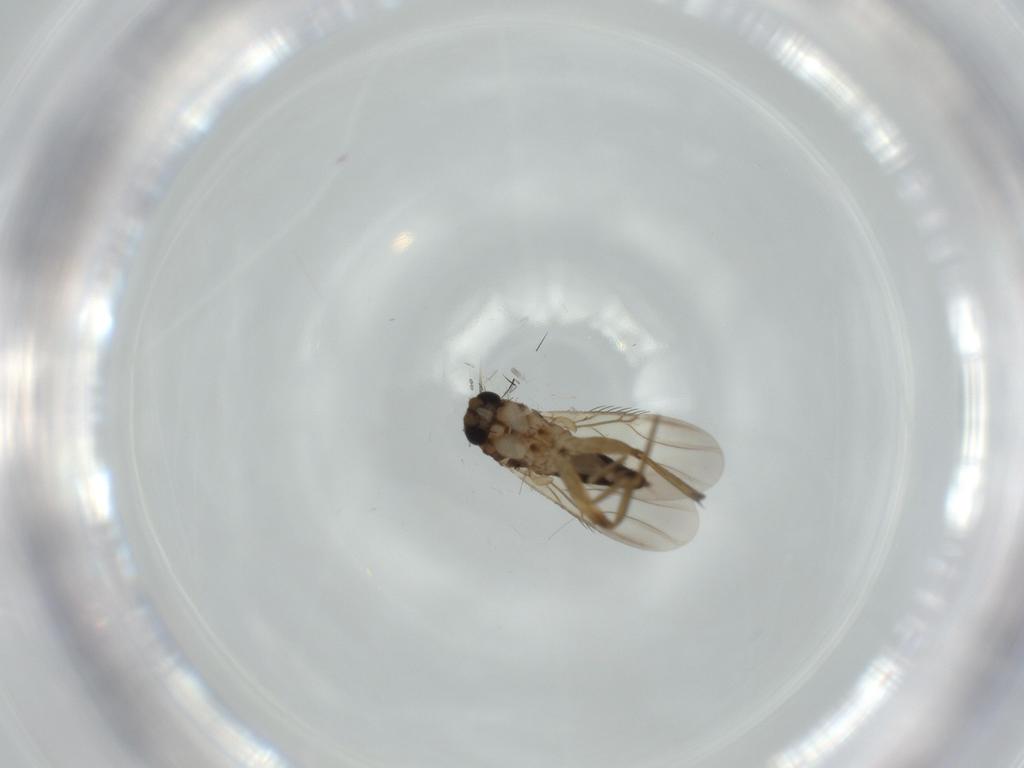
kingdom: Animalia
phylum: Arthropoda
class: Insecta
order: Diptera
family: Phoridae
